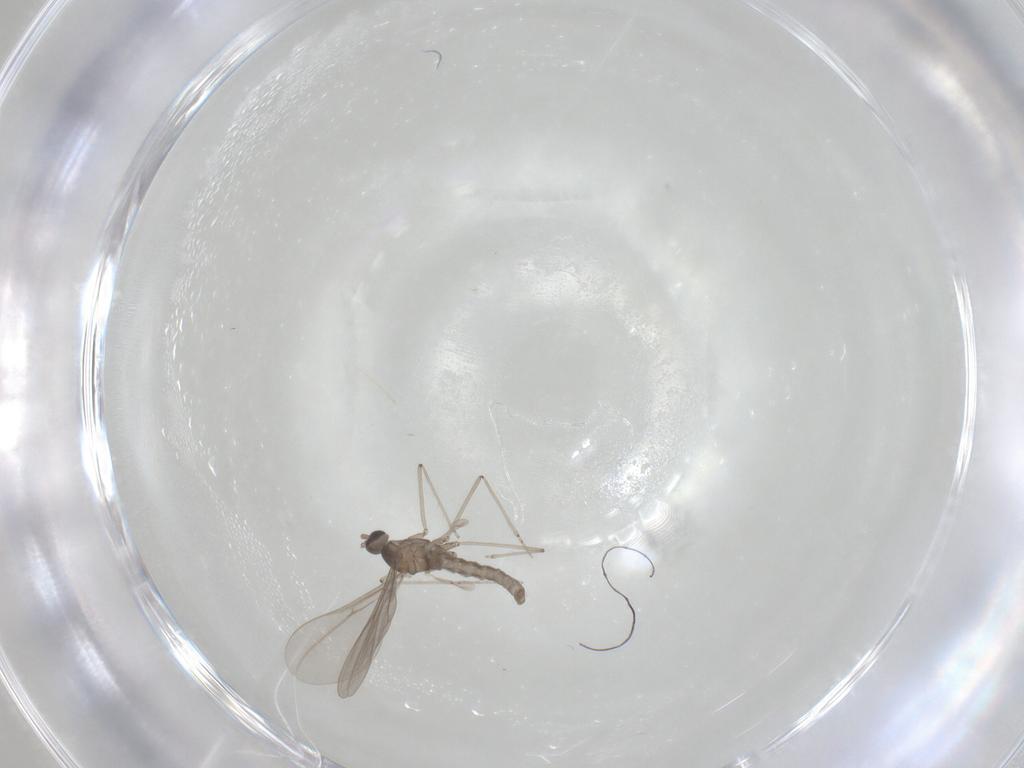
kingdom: Animalia
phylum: Arthropoda
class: Insecta
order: Diptera
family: Cecidomyiidae
